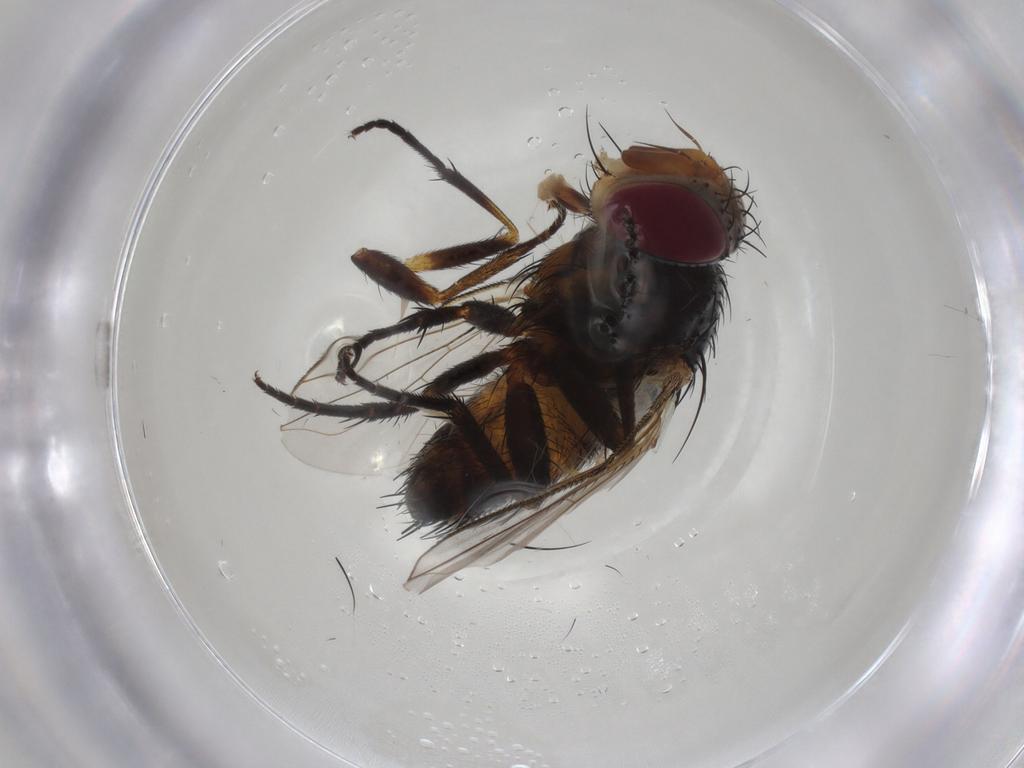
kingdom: Animalia
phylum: Arthropoda
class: Insecta
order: Diptera
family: Muscidae
